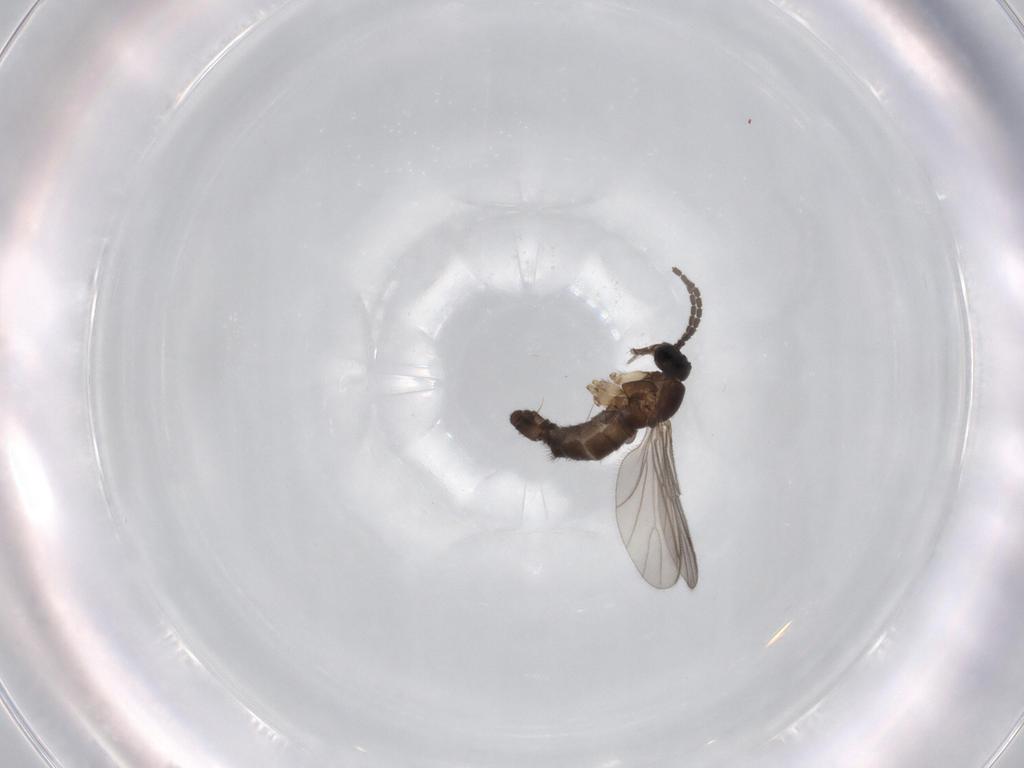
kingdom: Animalia
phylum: Arthropoda
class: Insecta
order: Diptera
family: Sciaridae
